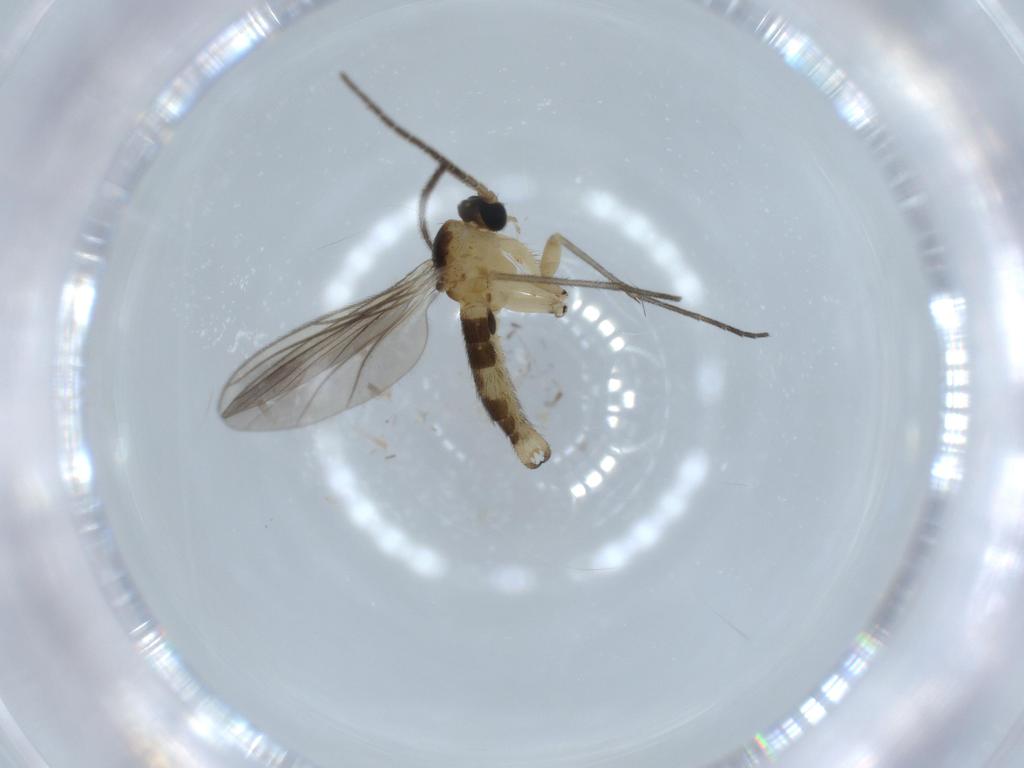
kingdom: Animalia
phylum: Arthropoda
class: Insecta
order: Diptera
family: Sciaridae
